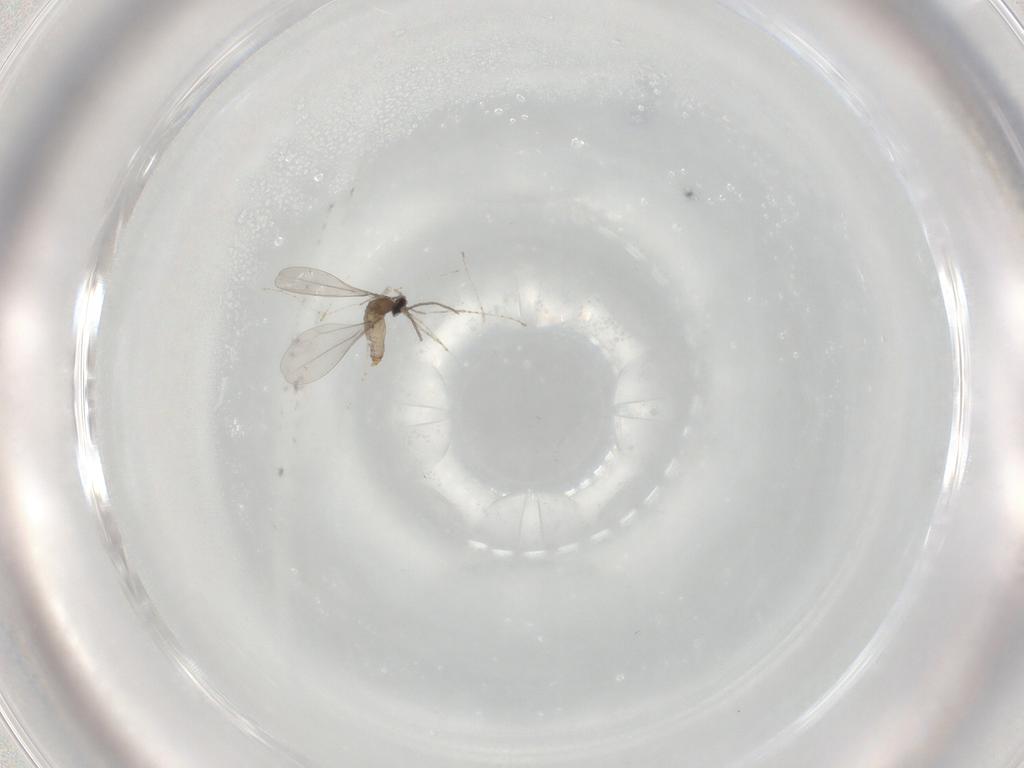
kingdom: Animalia
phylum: Arthropoda
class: Insecta
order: Diptera
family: Cecidomyiidae
